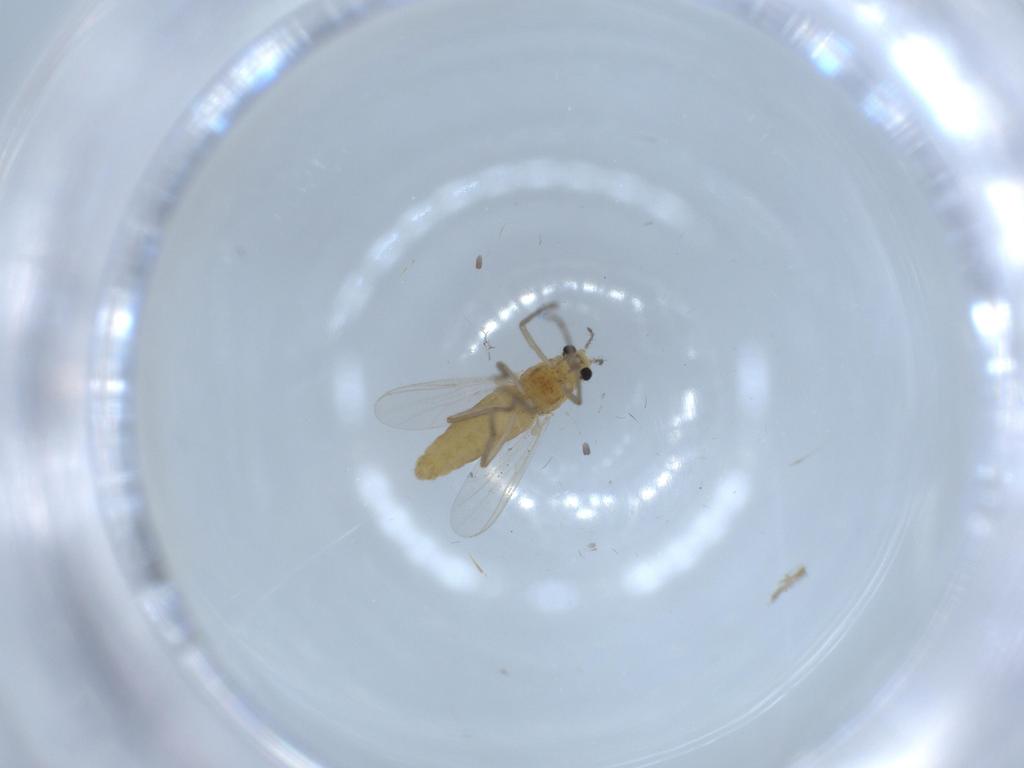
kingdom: Animalia
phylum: Arthropoda
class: Insecta
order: Diptera
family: Chironomidae
